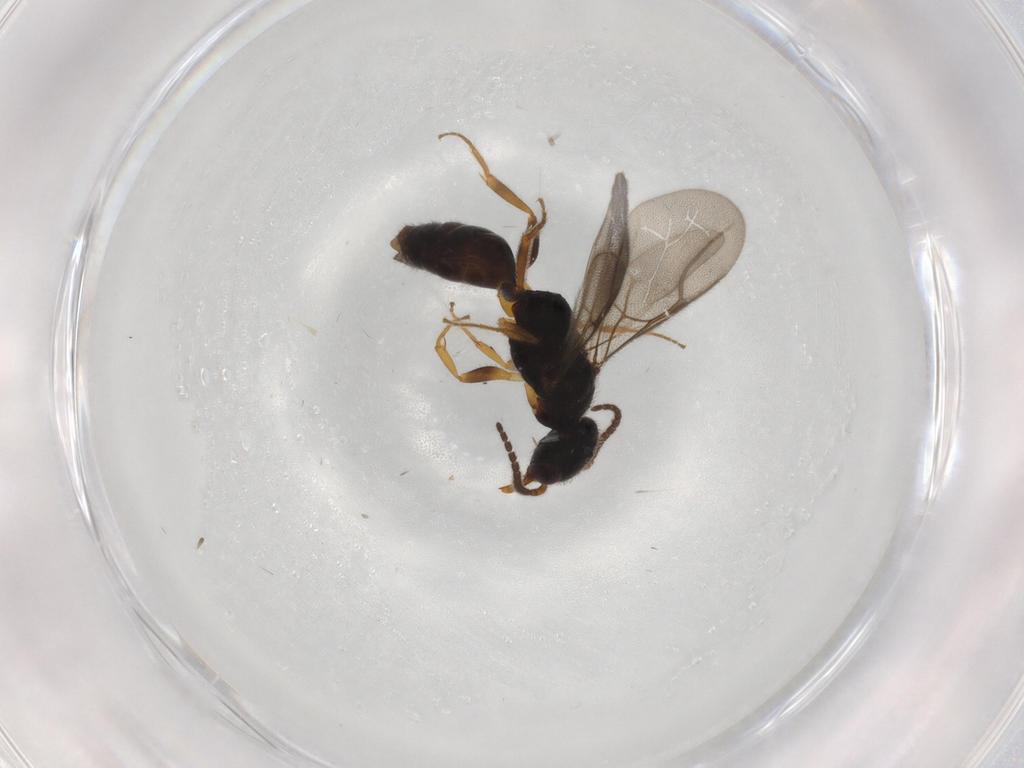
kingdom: Animalia
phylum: Arthropoda
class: Insecta
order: Hymenoptera
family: Bethylidae
